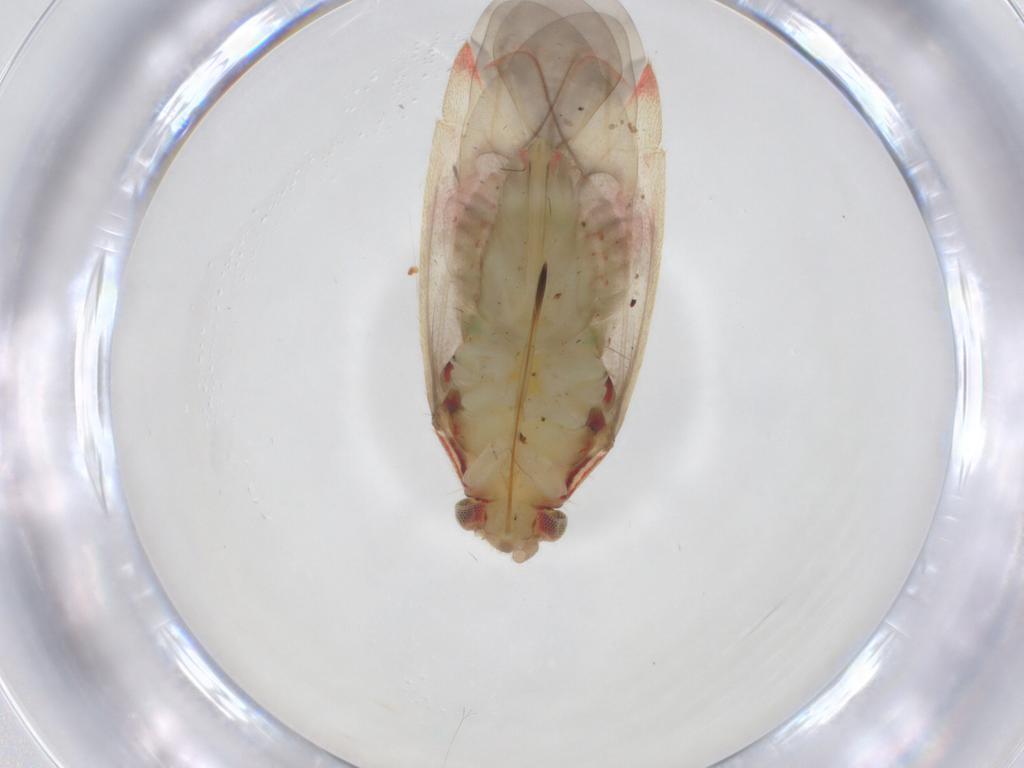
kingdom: Animalia
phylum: Arthropoda
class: Insecta
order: Hemiptera
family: Miridae
